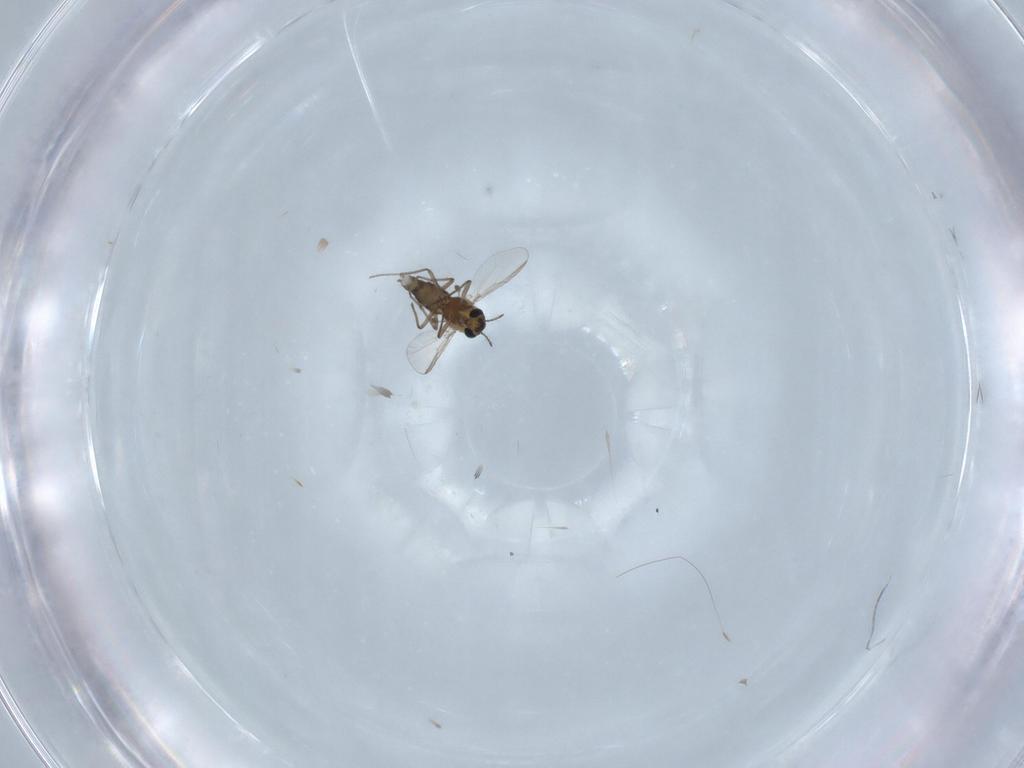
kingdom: Animalia
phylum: Arthropoda
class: Insecta
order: Diptera
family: Chironomidae
